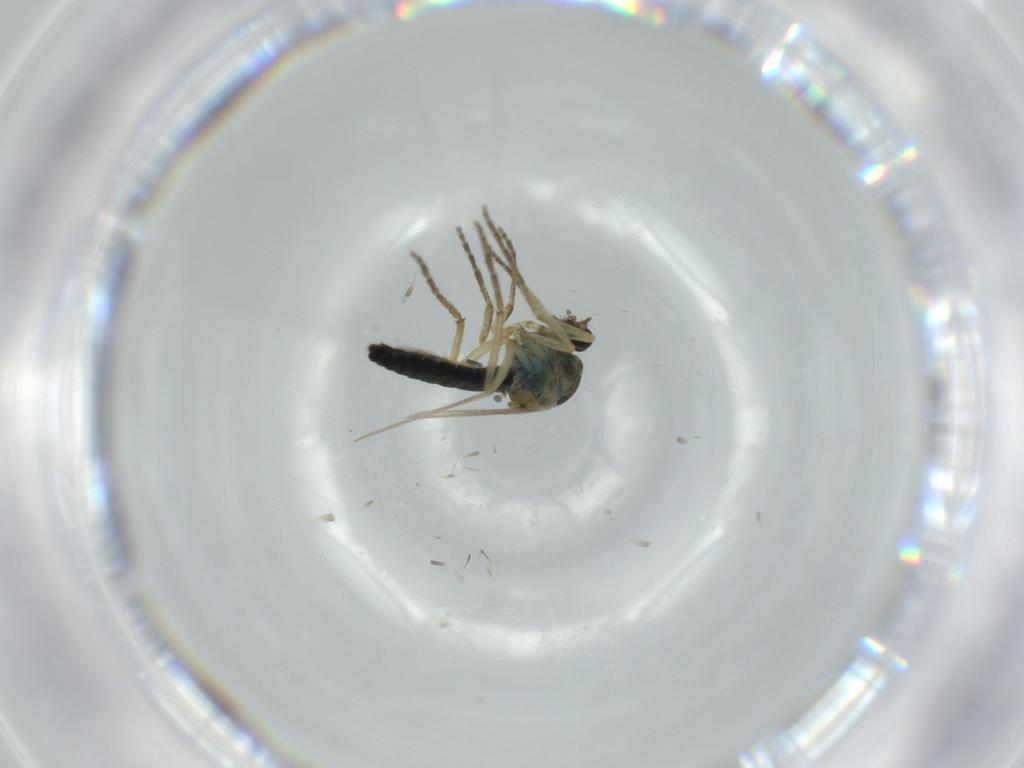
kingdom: Animalia
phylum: Arthropoda
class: Insecta
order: Diptera
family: Ceratopogonidae
